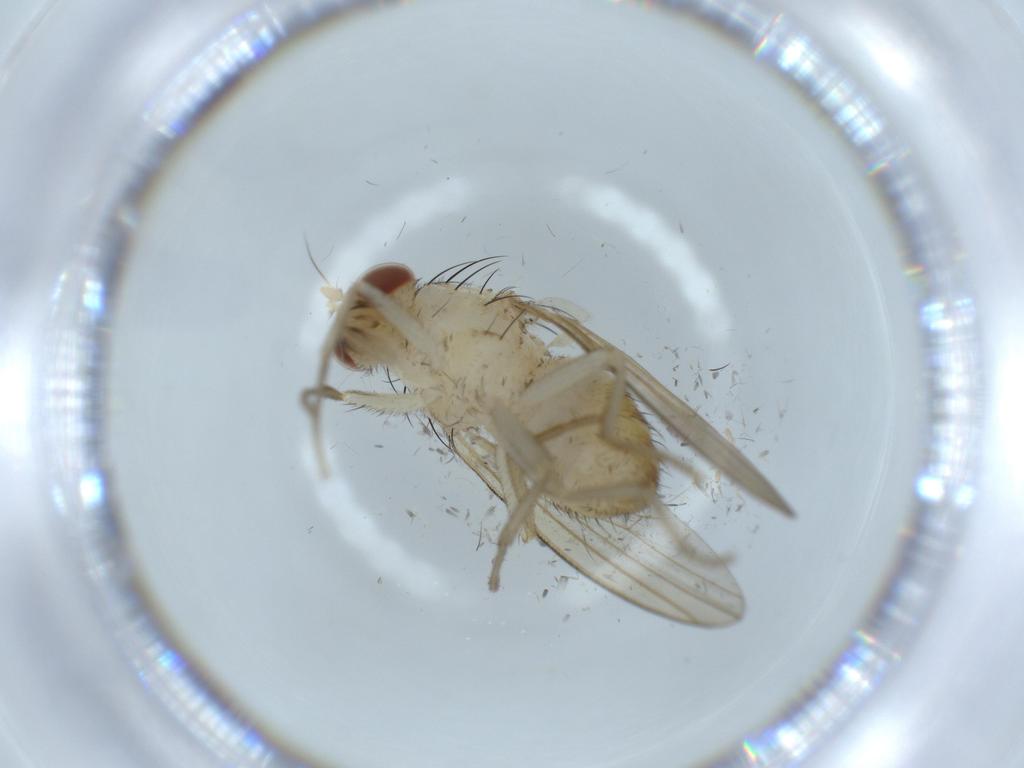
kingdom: Animalia
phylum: Arthropoda
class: Insecta
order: Diptera
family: Lauxaniidae
